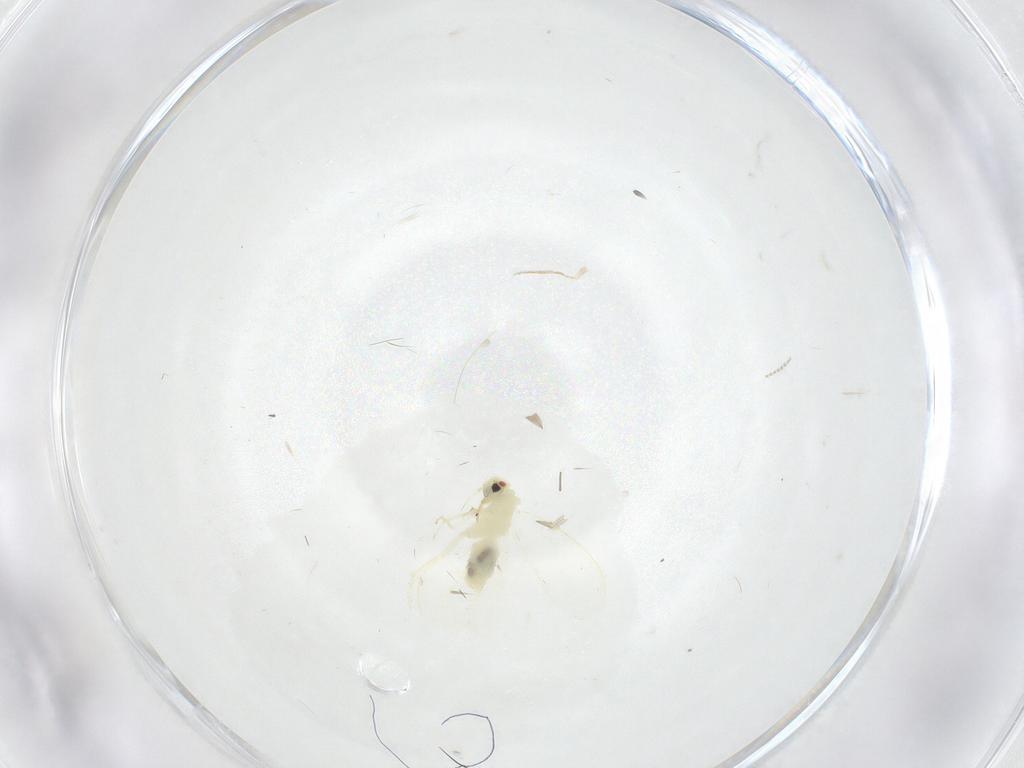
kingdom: Animalia
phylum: Arthropoda
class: Insecta
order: Hemiptera
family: Aleyrodidae
